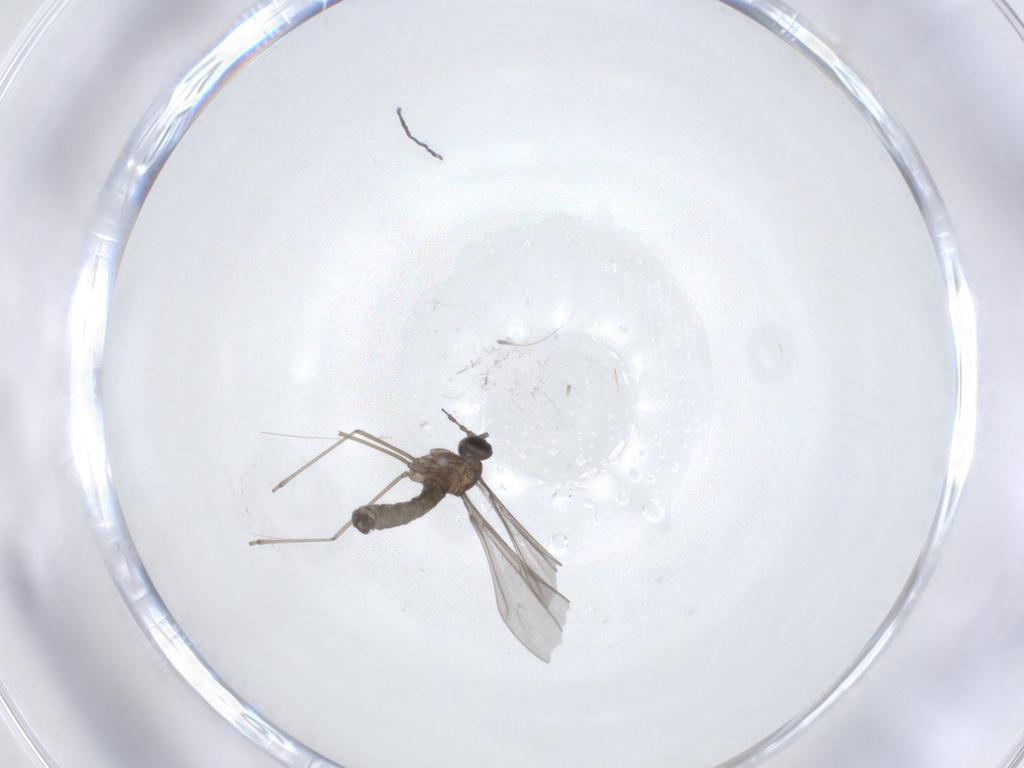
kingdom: Animalia
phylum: Arthropoda
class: Insecta
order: Diptera
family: Cecidomyiidae
